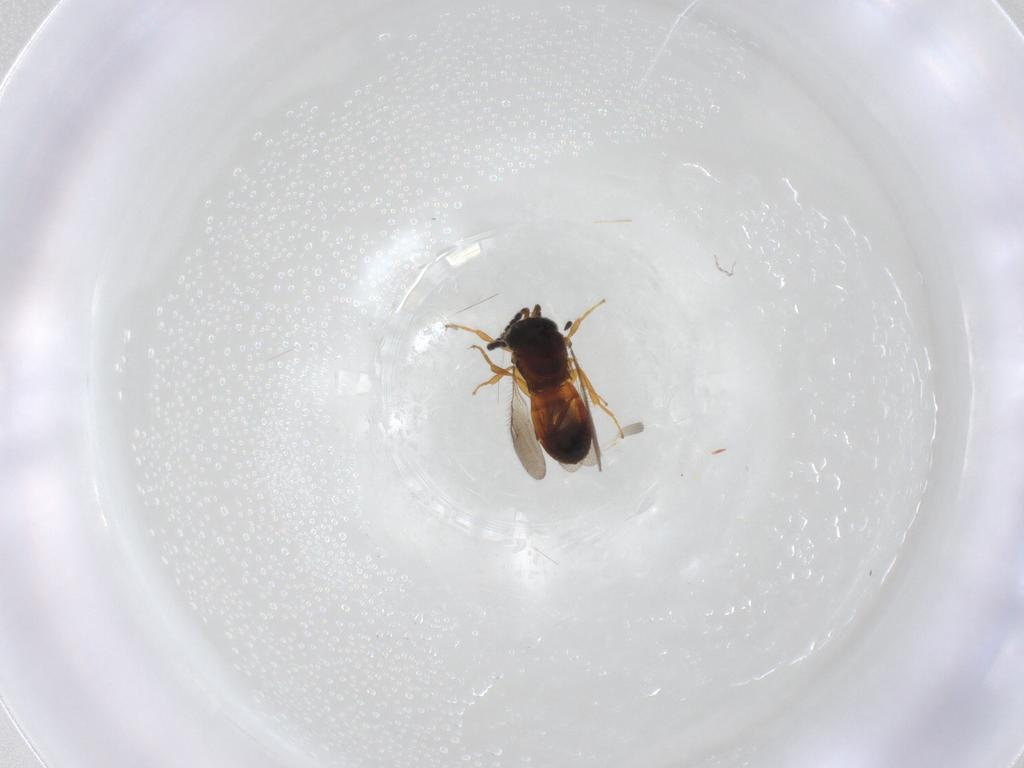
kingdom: Animalia
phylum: Arthropoda
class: Insecta
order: Hymenoptera
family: Scelionidae
